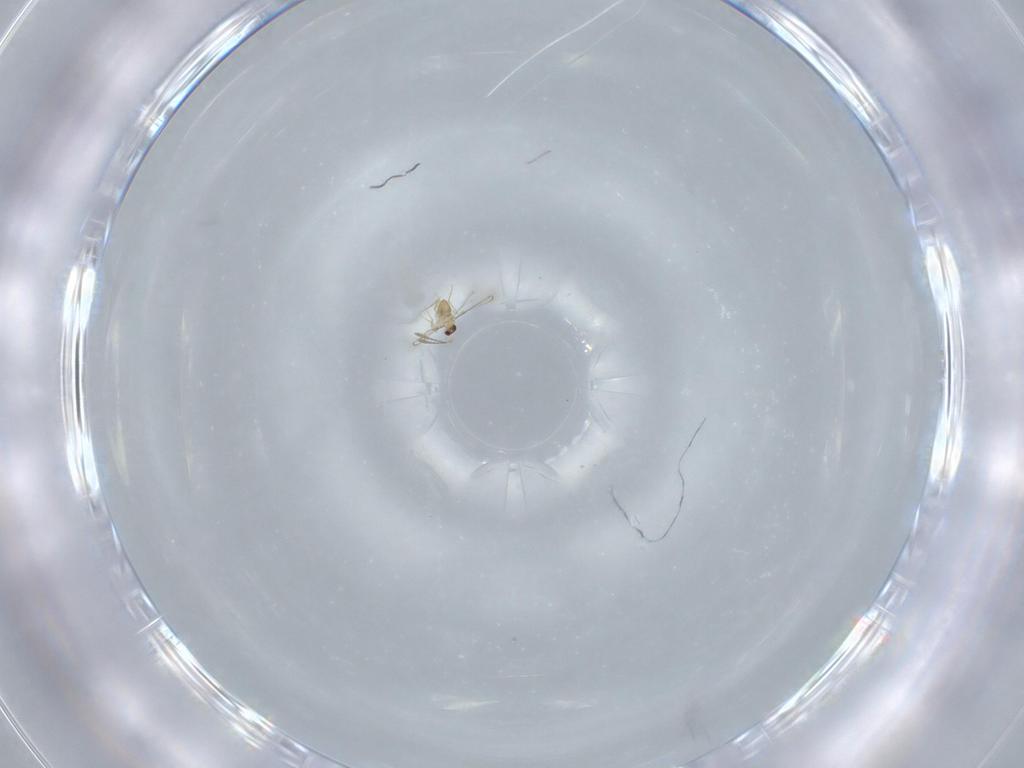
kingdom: Animalia
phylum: Arthropoda
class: Insecta
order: Hymenoptera
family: Mymaridae
